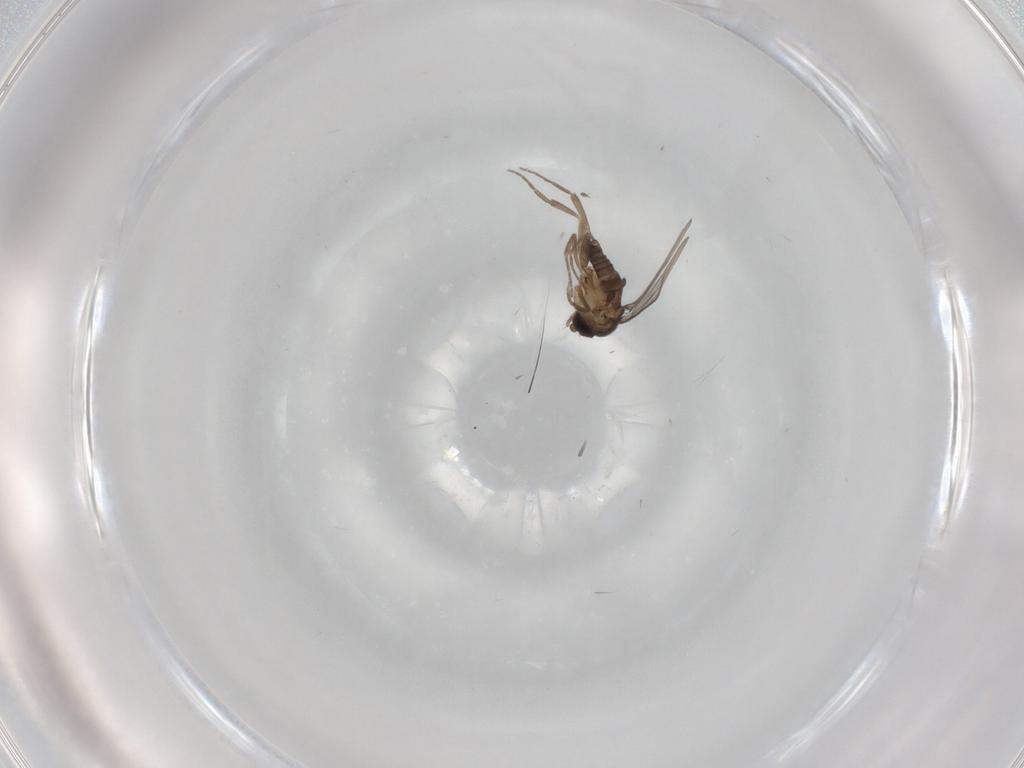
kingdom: Animalia
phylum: Arthropoda
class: Insecta
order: Diptera
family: Phoridae
